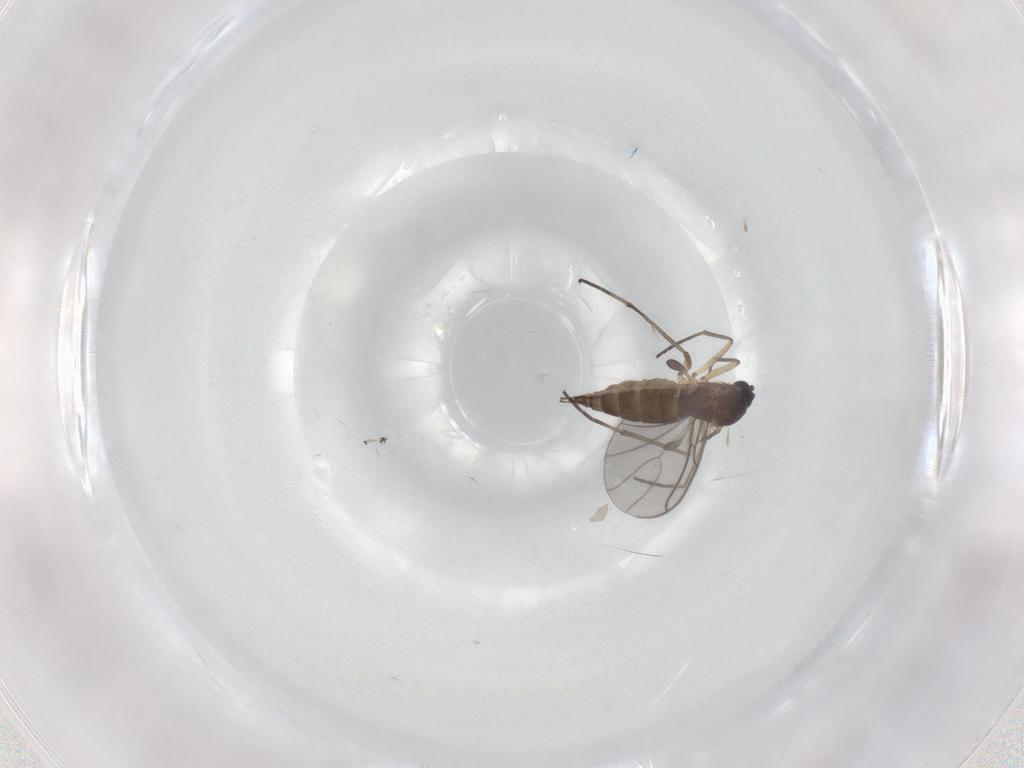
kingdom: Animalia
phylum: Arthropoda
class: Insecta
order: Diptera
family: Sciaridae
